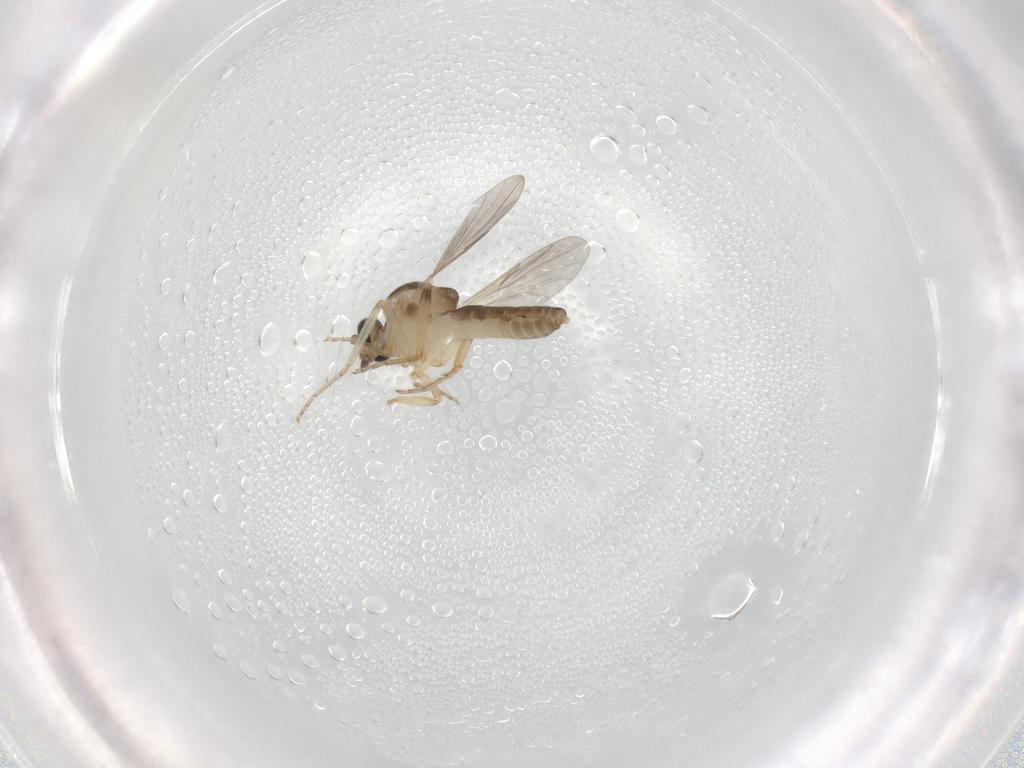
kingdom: Animalia
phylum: Arthropoda
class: Insecta
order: Diptera
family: Ceratopogonidae
